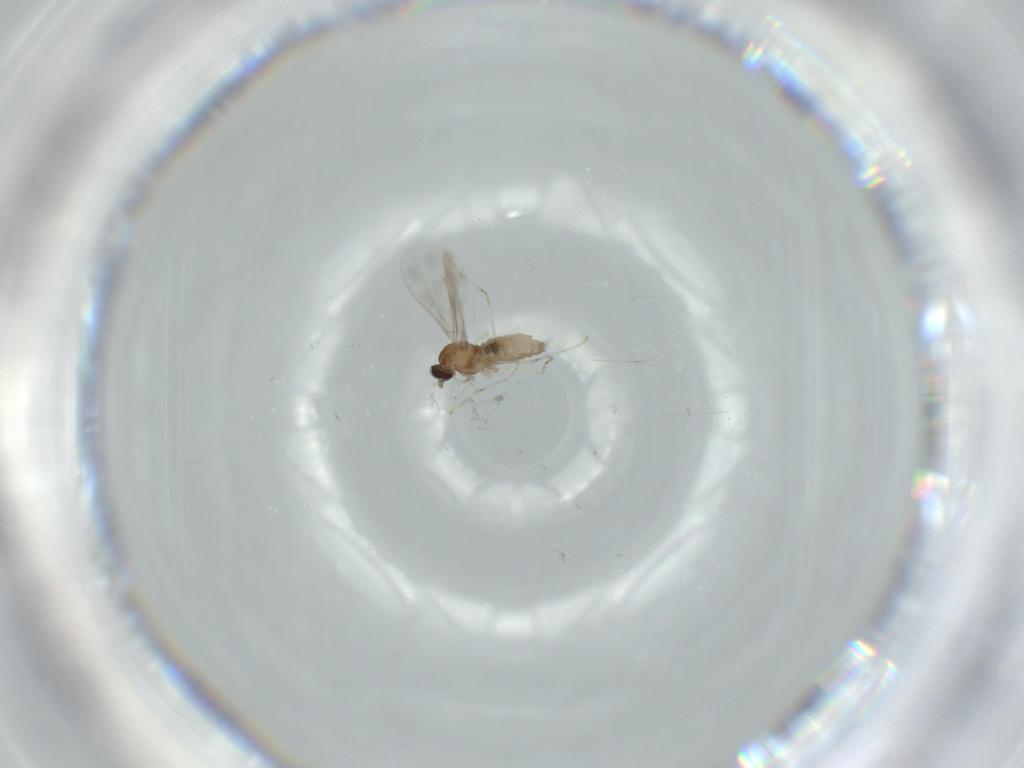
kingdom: Animalia
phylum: Arthropoda
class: Insecta
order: Diptera
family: Cecidomyiidae
